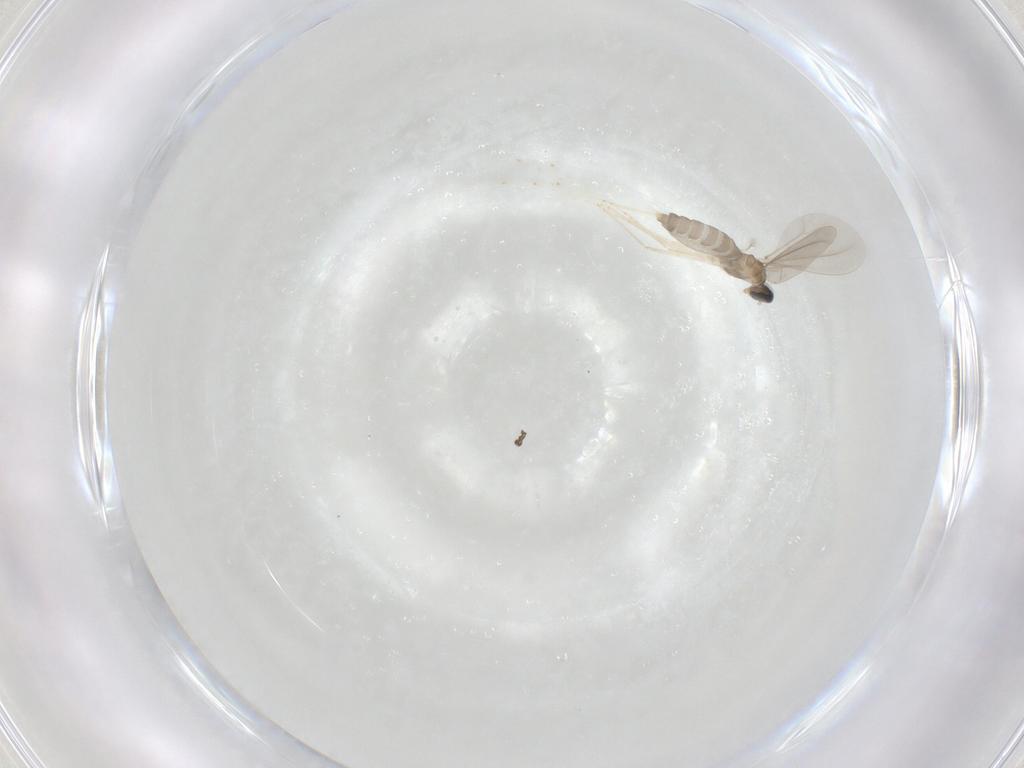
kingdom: Animalia
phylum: Arthropoda
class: Insecta
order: Diptera
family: Cecidomyiidae
